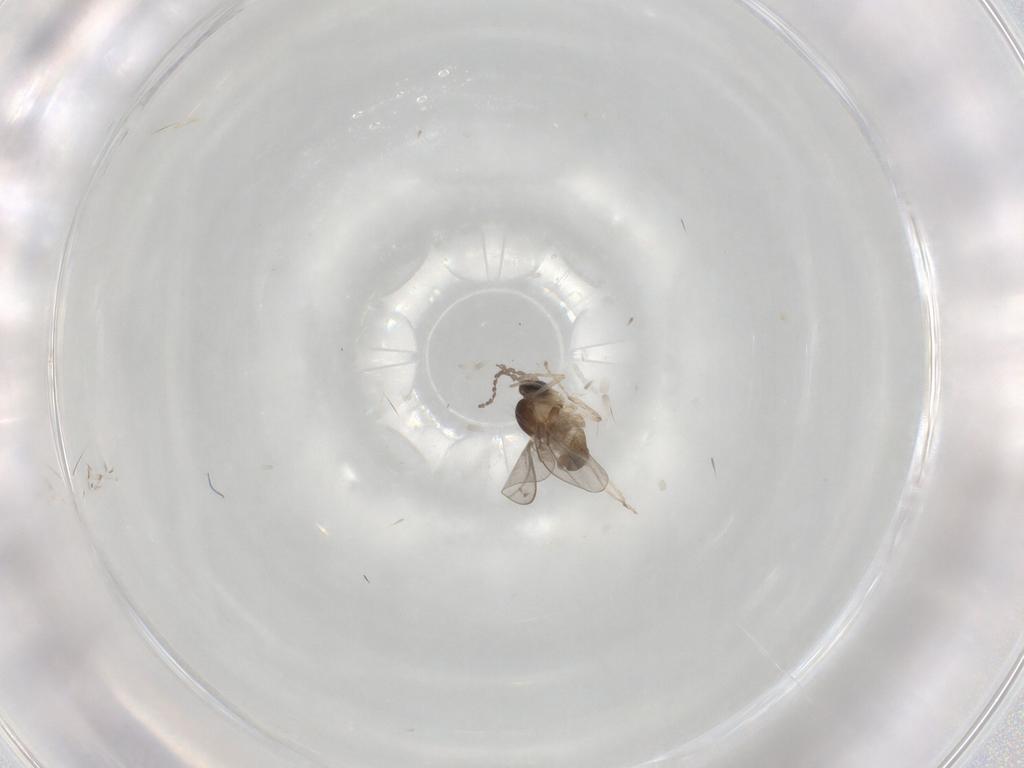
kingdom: Animalia
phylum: Arthropoda
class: Insecta
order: Diptera
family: Cecidomyiidae
